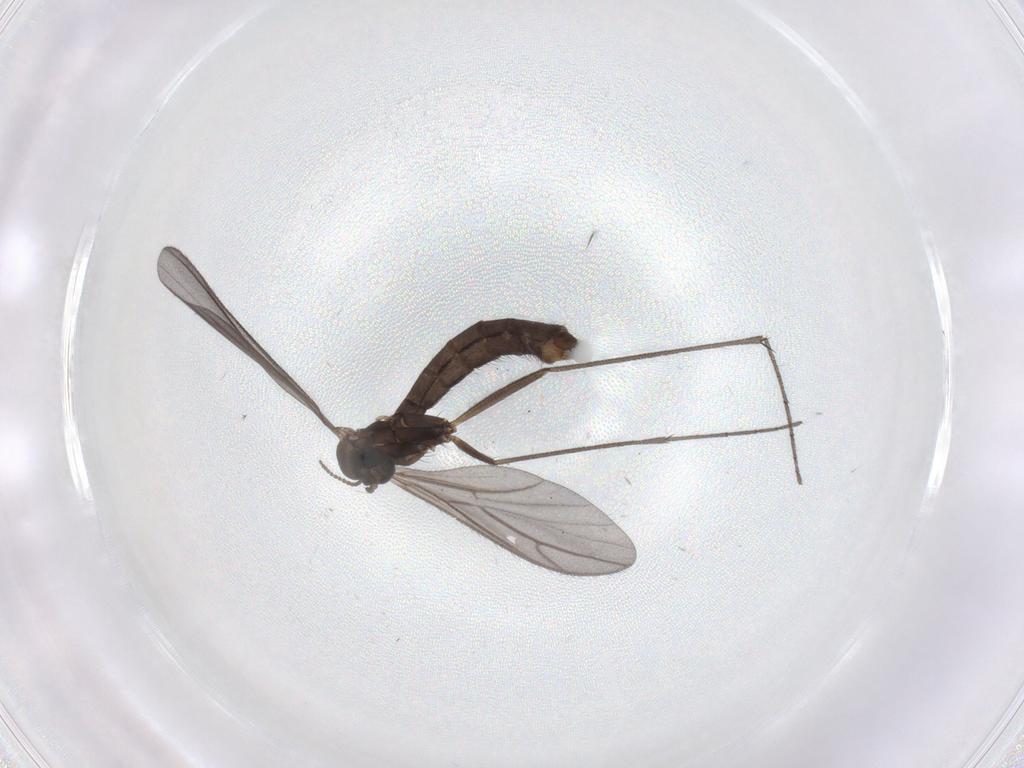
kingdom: Animalia
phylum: Arthropoda
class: Insecta
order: Diptera
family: Keroplatidae
